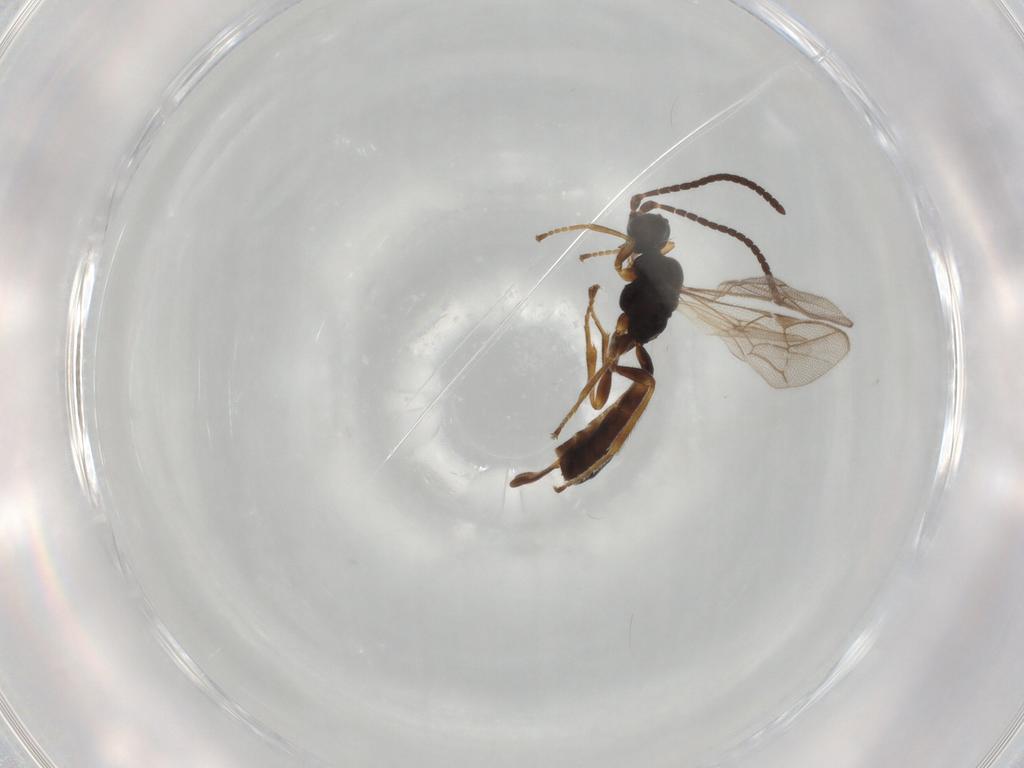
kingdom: Animalia
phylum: Arthropoda
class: Insecta
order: Hymenoptera
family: Ichneumonidae
